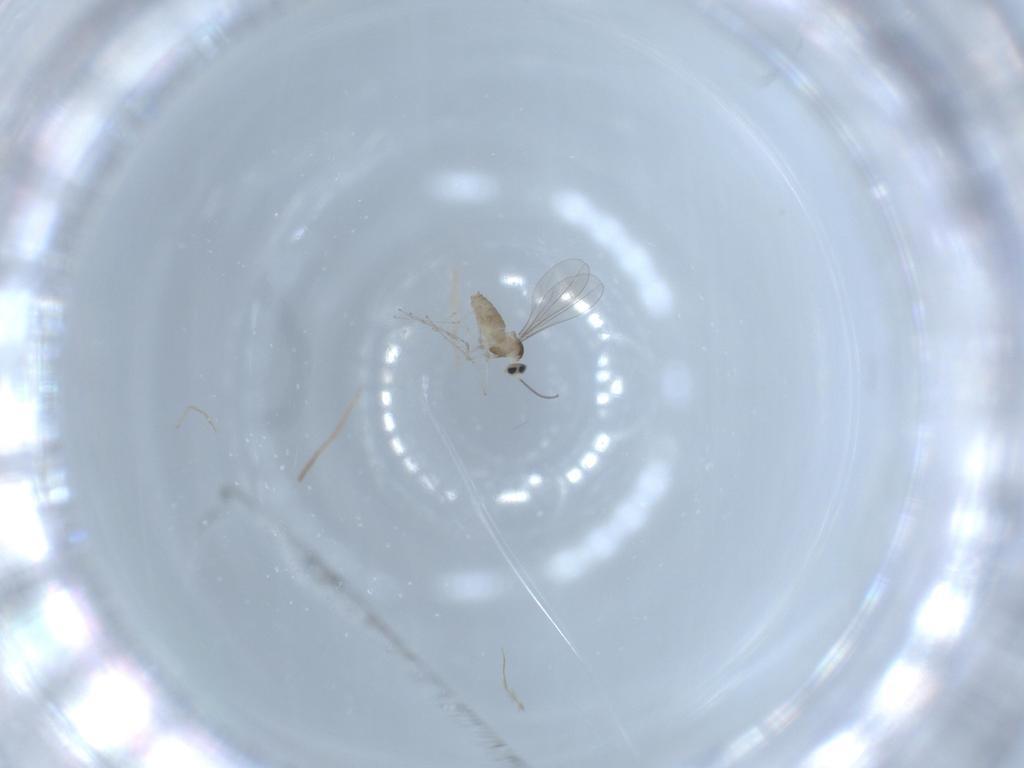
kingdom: Animalia
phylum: Arthropoda
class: Insecta
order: Diptera
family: Cecidomyiidae
